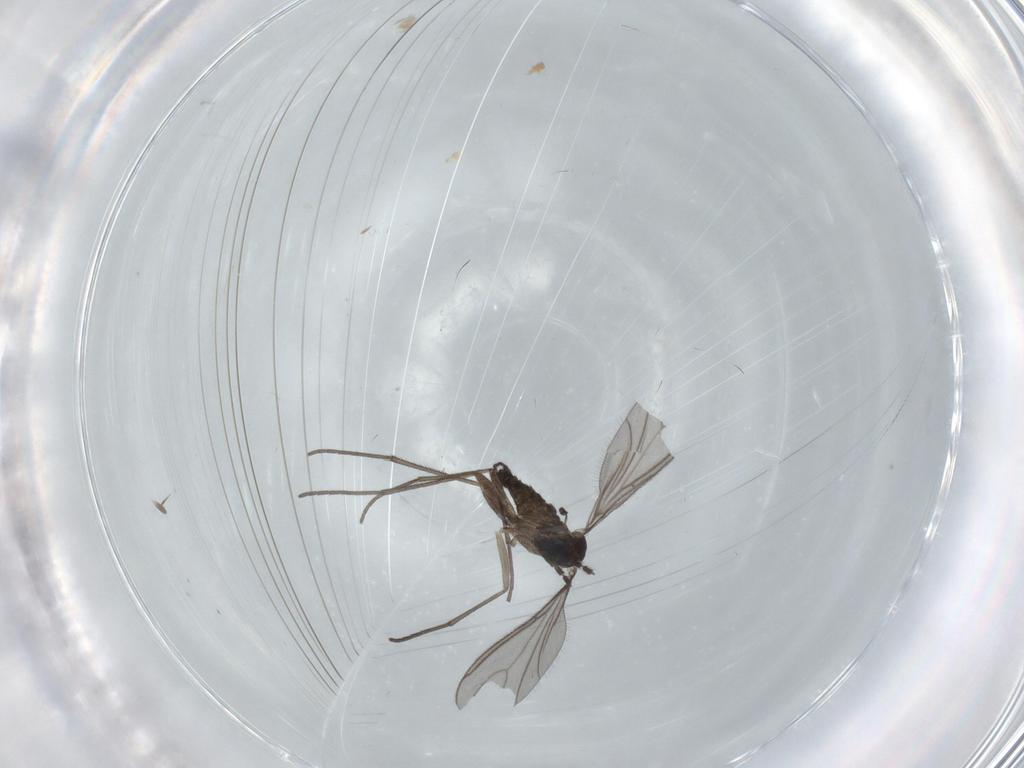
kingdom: Animalia
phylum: Arthropoda
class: Insecta
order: Diptera
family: Sciaridae
